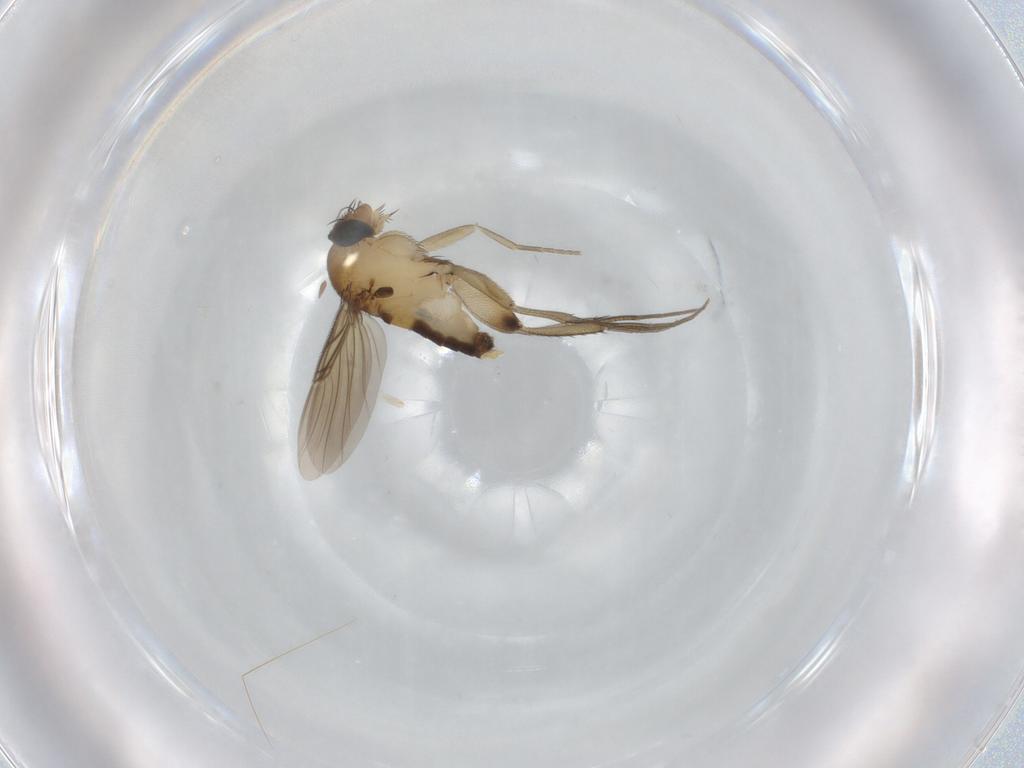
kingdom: Animalia
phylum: Arthropoda
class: Insecta
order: Diptera
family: Phoridae
